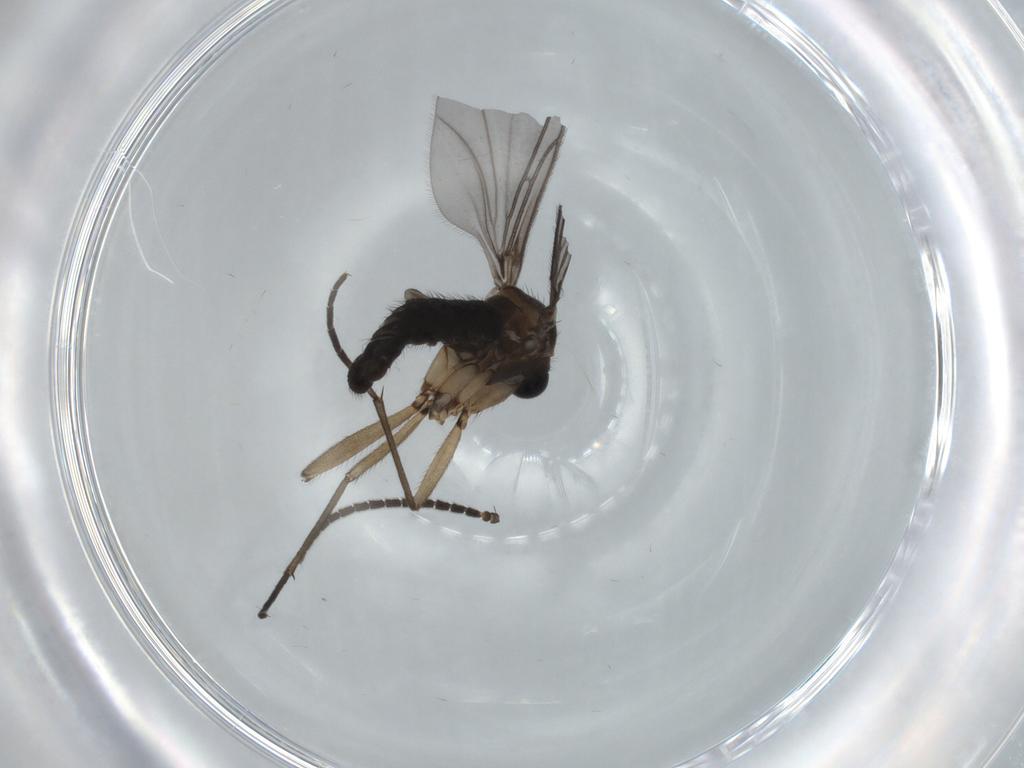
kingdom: Animalia
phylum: Arthropoda
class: Insecta
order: Diptera
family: Sciaridae
